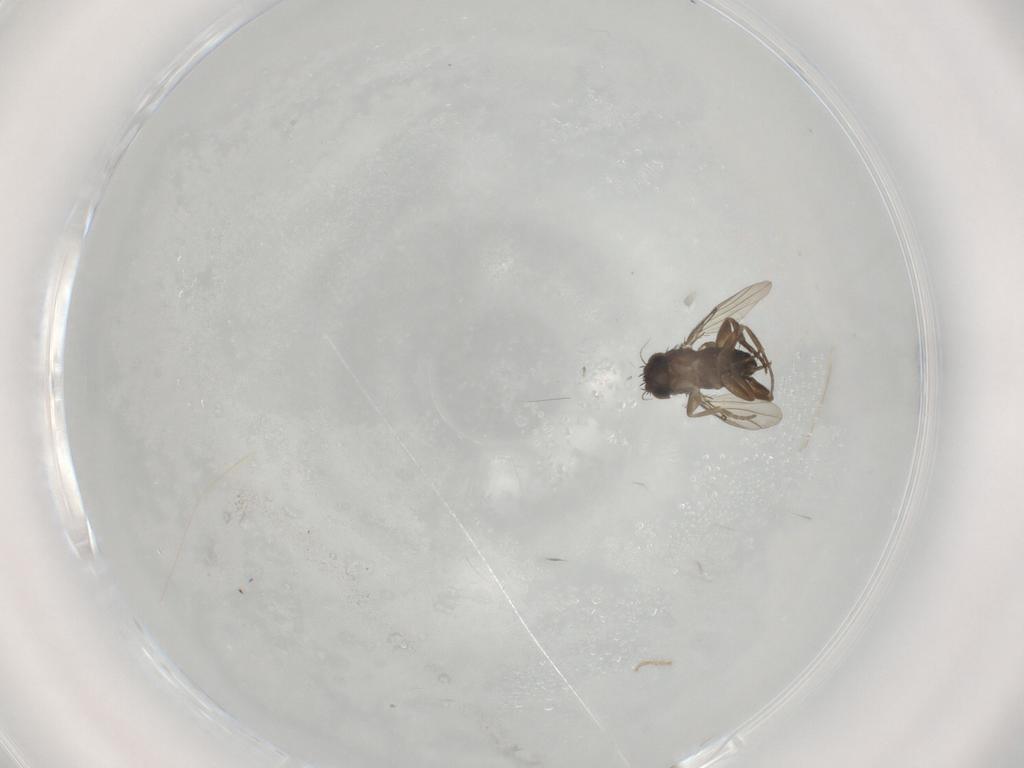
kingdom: Animalia
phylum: Arthropoda
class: Insecta
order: Diptera
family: Phoridae
